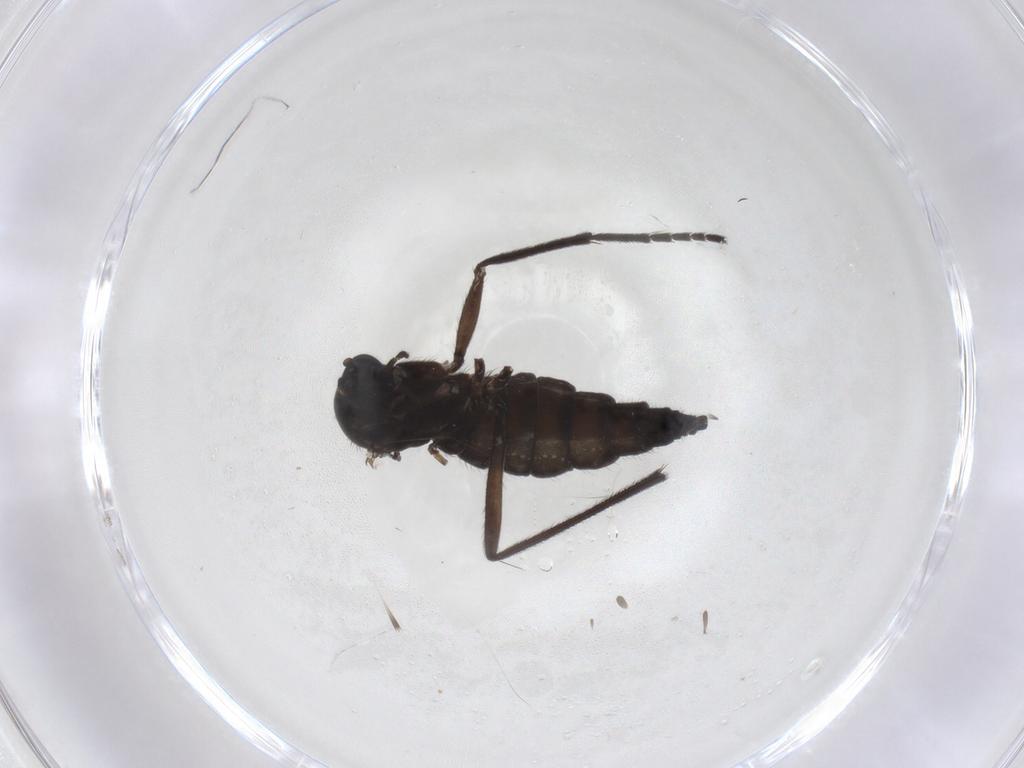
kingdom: Animalia
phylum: Arthropoda
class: Insecta
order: Diptera
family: Sciaridae
